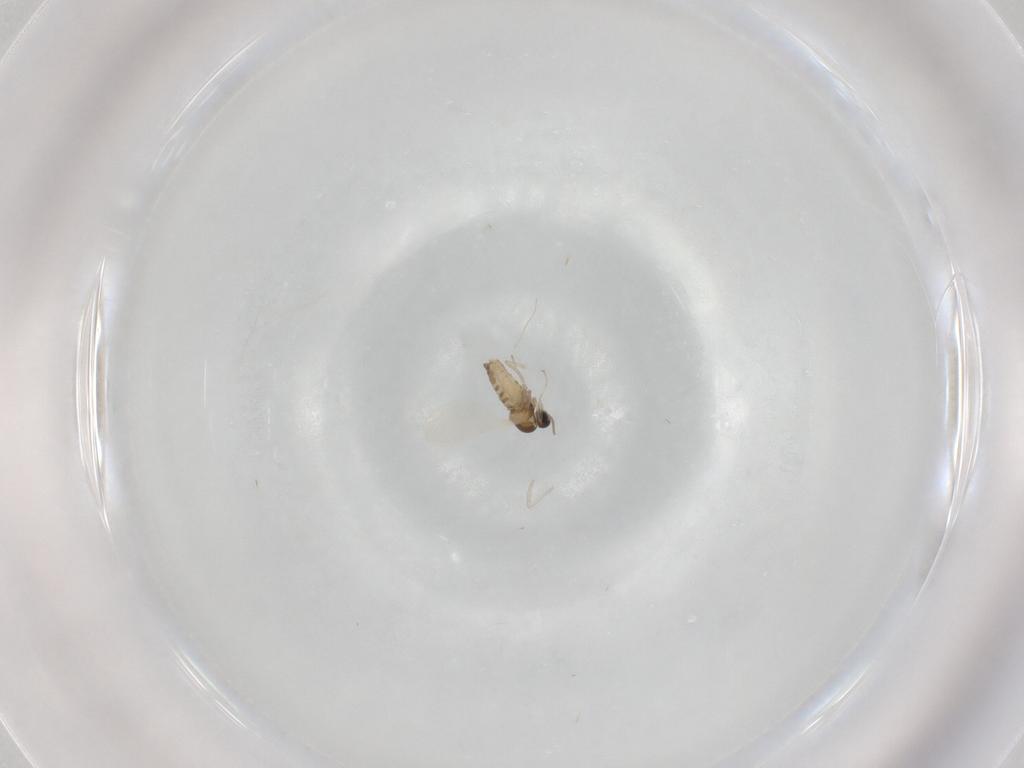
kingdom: Animalia
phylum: Arthropoda
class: Insecta
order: Diptera
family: Cecidomyiidae
